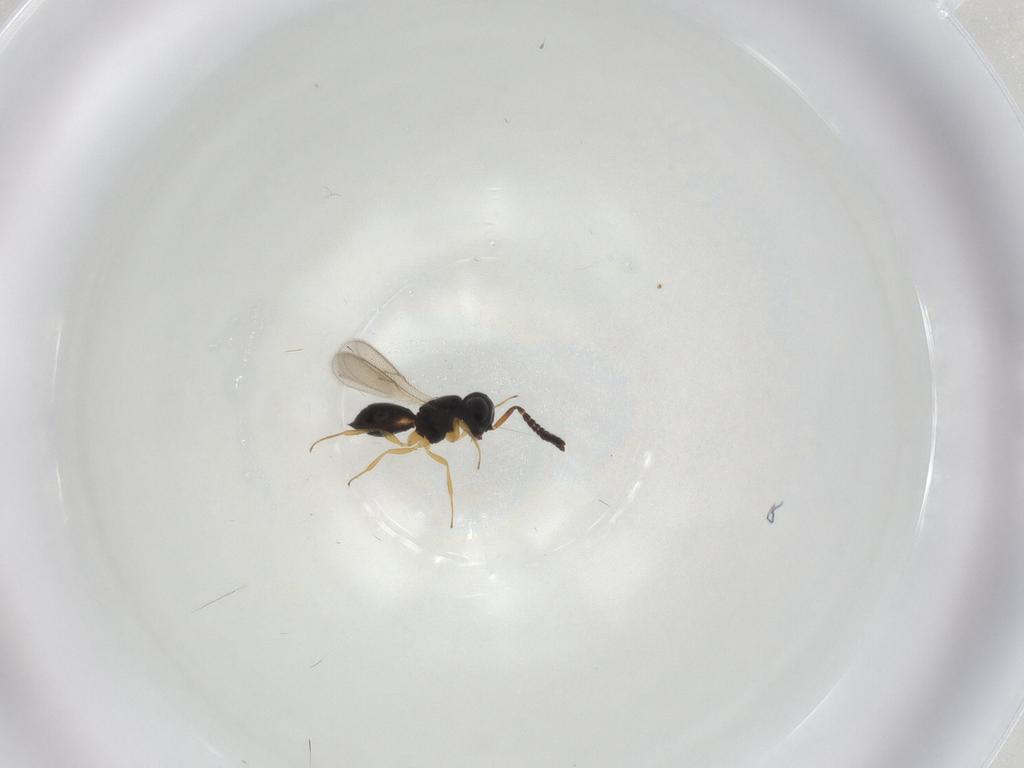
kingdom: Animalia
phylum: Arthropoda
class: Insecta
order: Hymenoptera
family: Scelionidae
